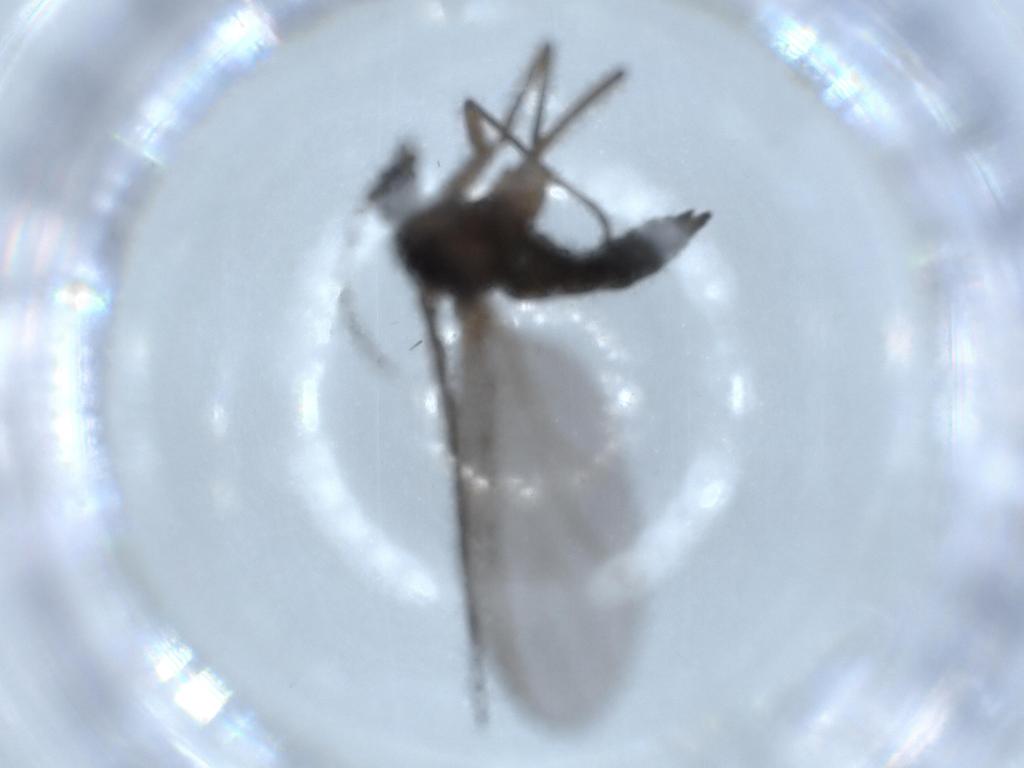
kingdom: Animalia
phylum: Arthropoda
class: Insecta
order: Diptera
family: Sciaridae
